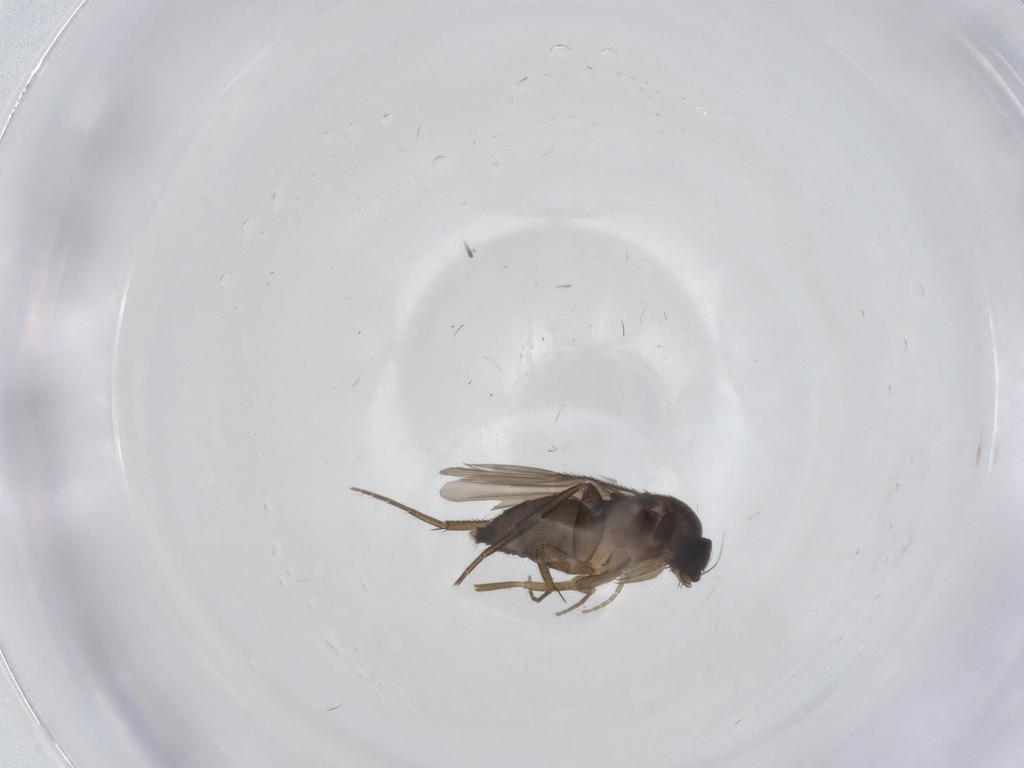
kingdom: Animalia
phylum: Arthropoda
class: Insecta
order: Diptera
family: Phoridae
